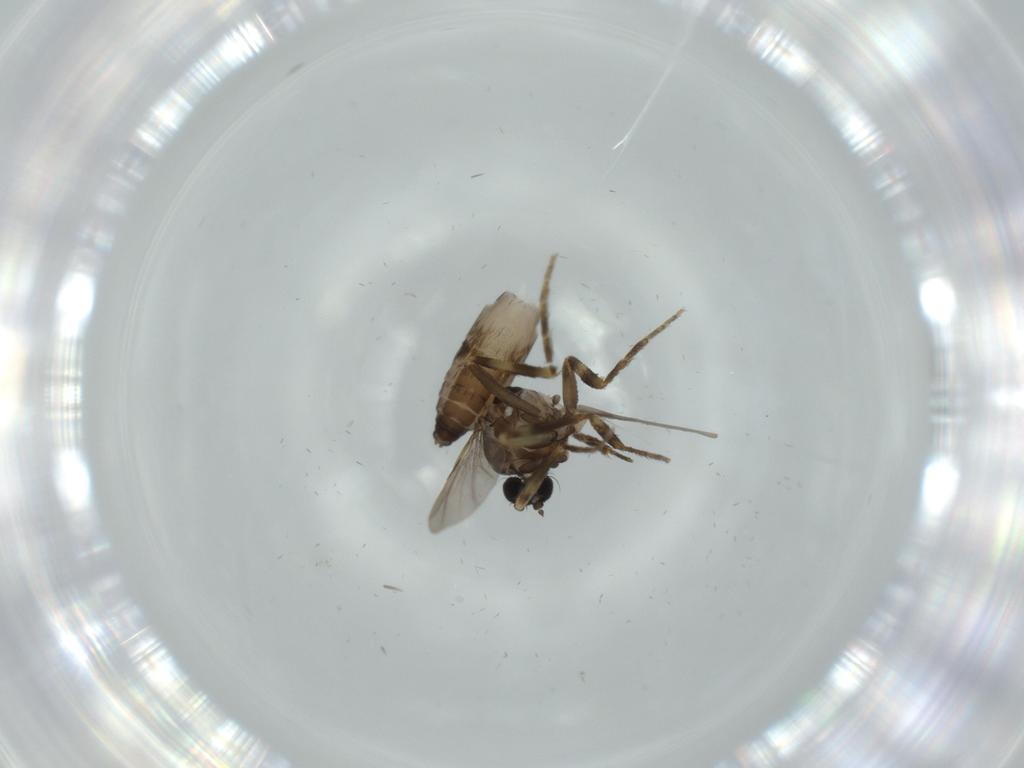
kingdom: Animalia
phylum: Arthropoda
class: Insecta
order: Diptera
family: Ceratopogonidae
